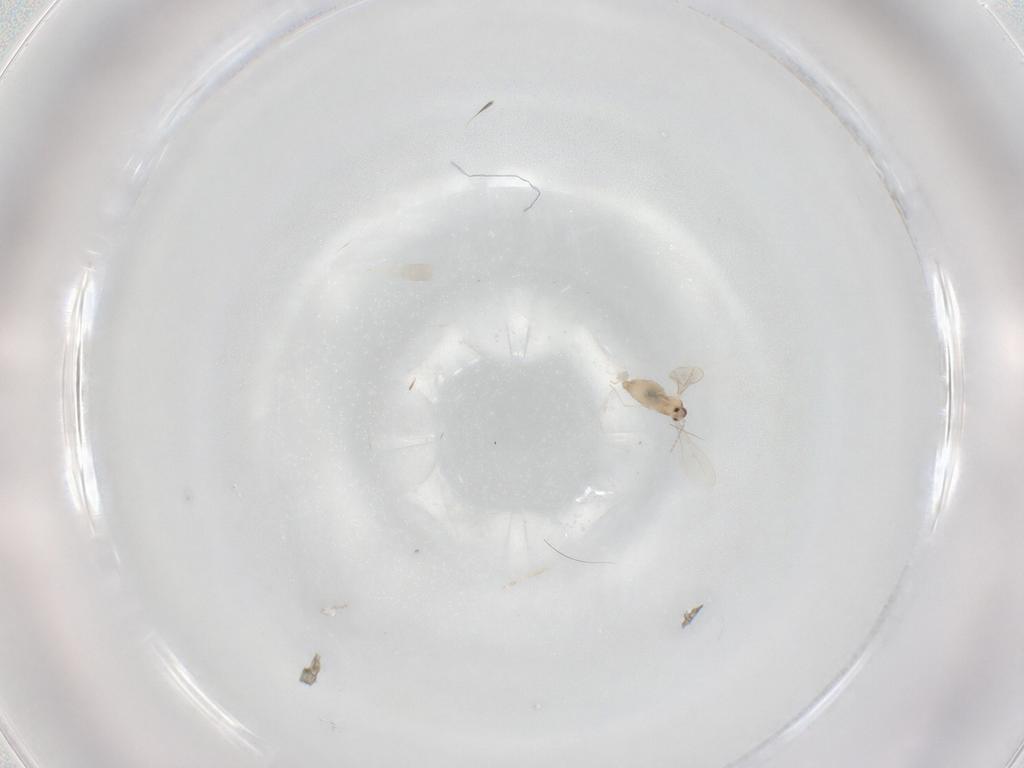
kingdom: Animalia
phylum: Arthropoda
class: Insecta
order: Diptera
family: Cecidomyiidae
